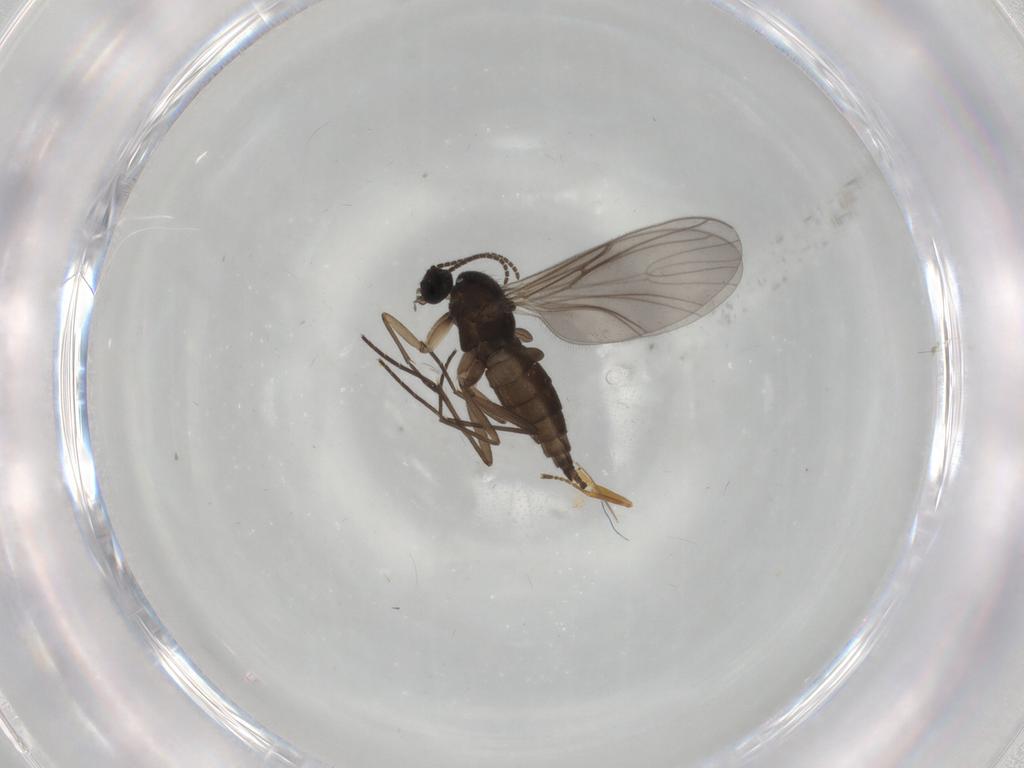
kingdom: Animalia
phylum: Arthropoda
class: Insecta
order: Diptera
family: Sciaridae
